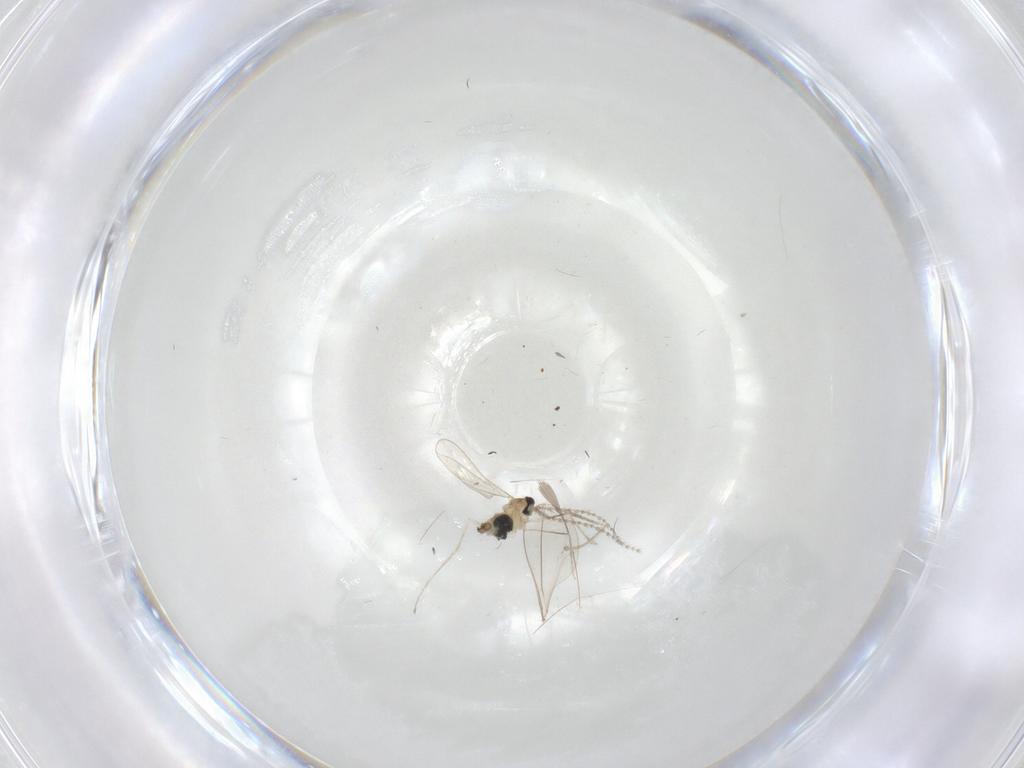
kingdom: Animalia
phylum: Arthropoda
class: Insecta
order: Diptera
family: Cecidomyiidae
